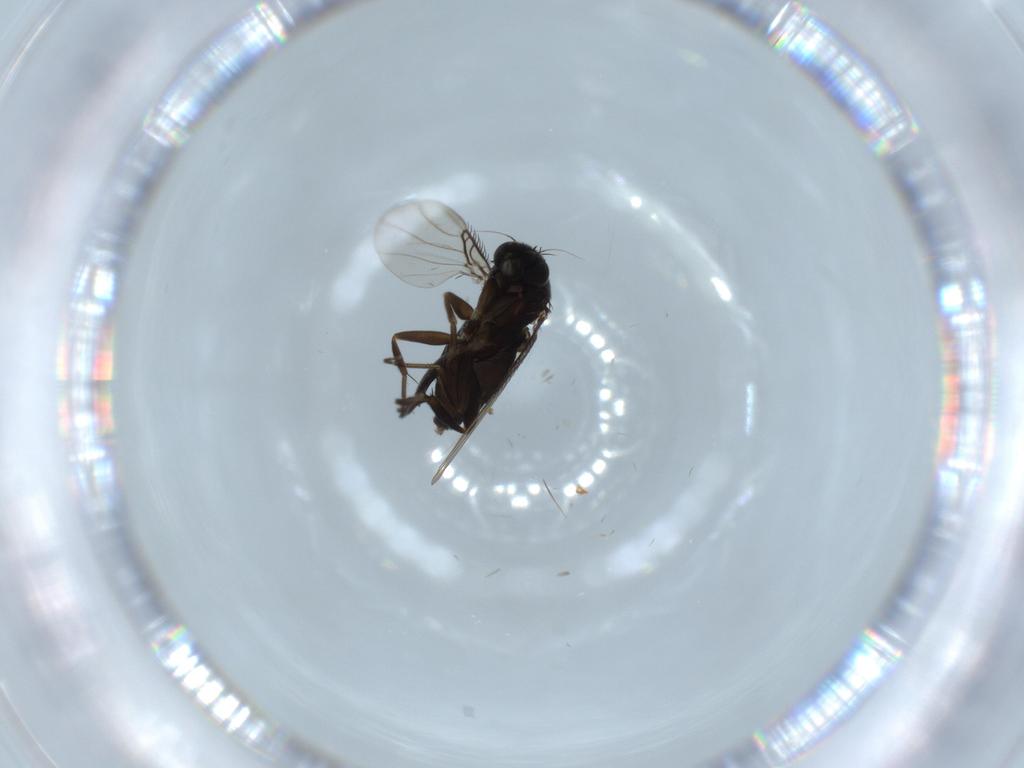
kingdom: Animalia
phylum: Arthropoda
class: Insecta
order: Diptera
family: Phoridae
